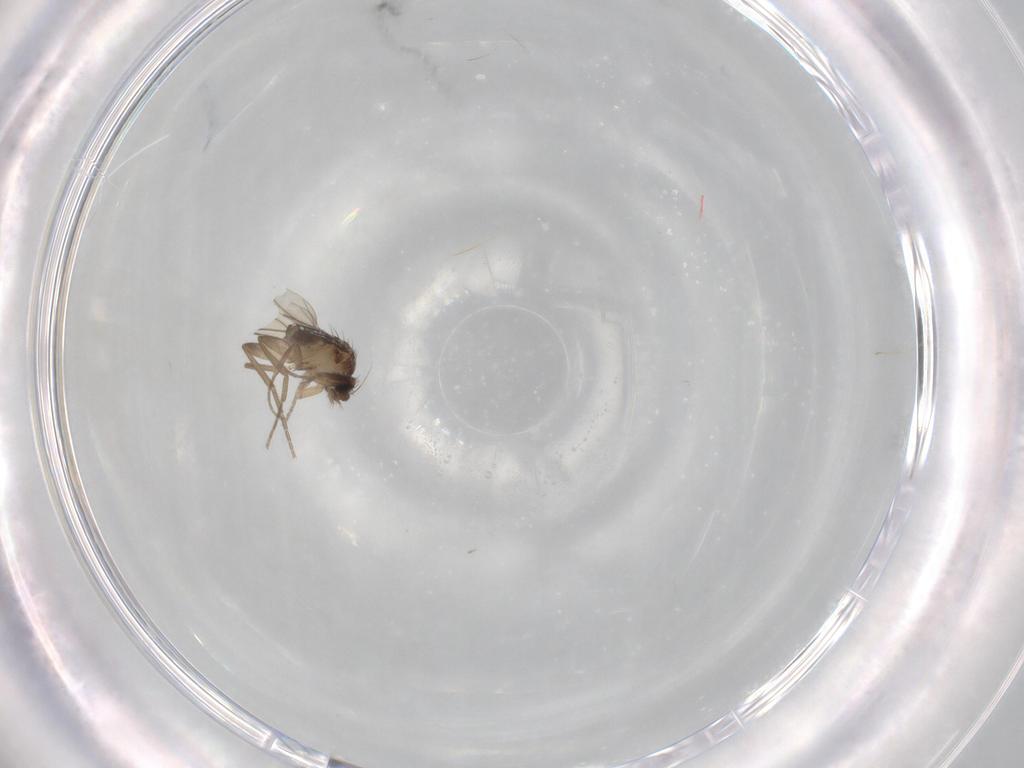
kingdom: Animalia
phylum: Arthropoda
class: Insecta
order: Diptera
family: Phoridae
